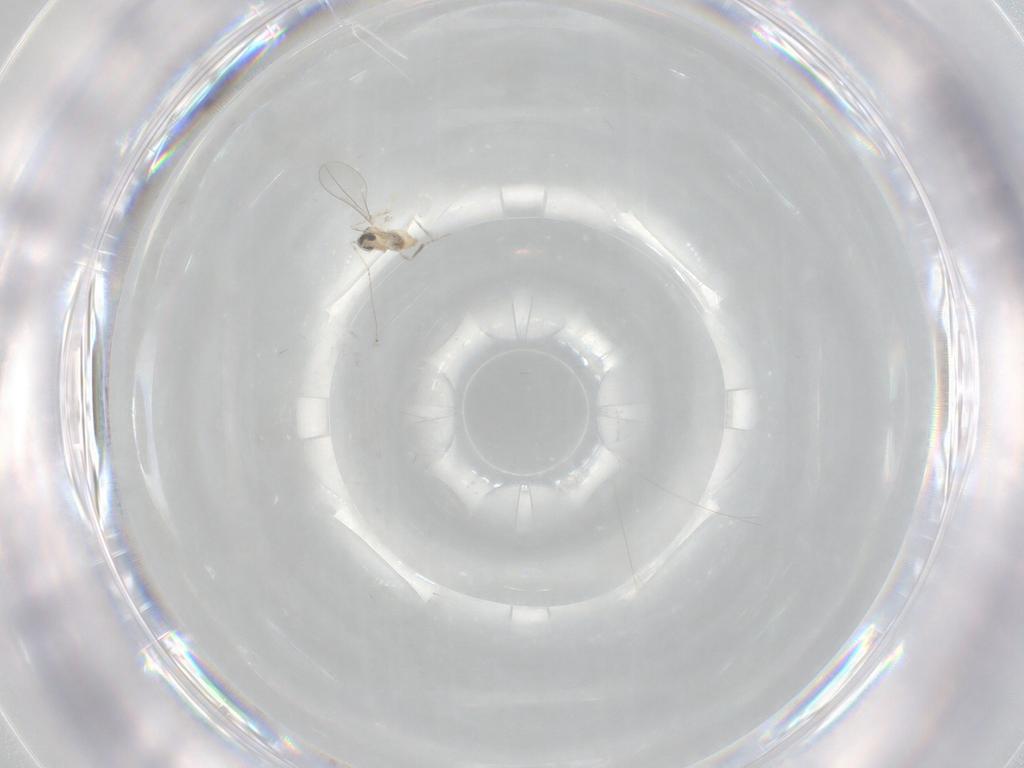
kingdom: Animalia
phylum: Arthropoda
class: Insecta
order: Diptera
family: Cecidomyiidae
